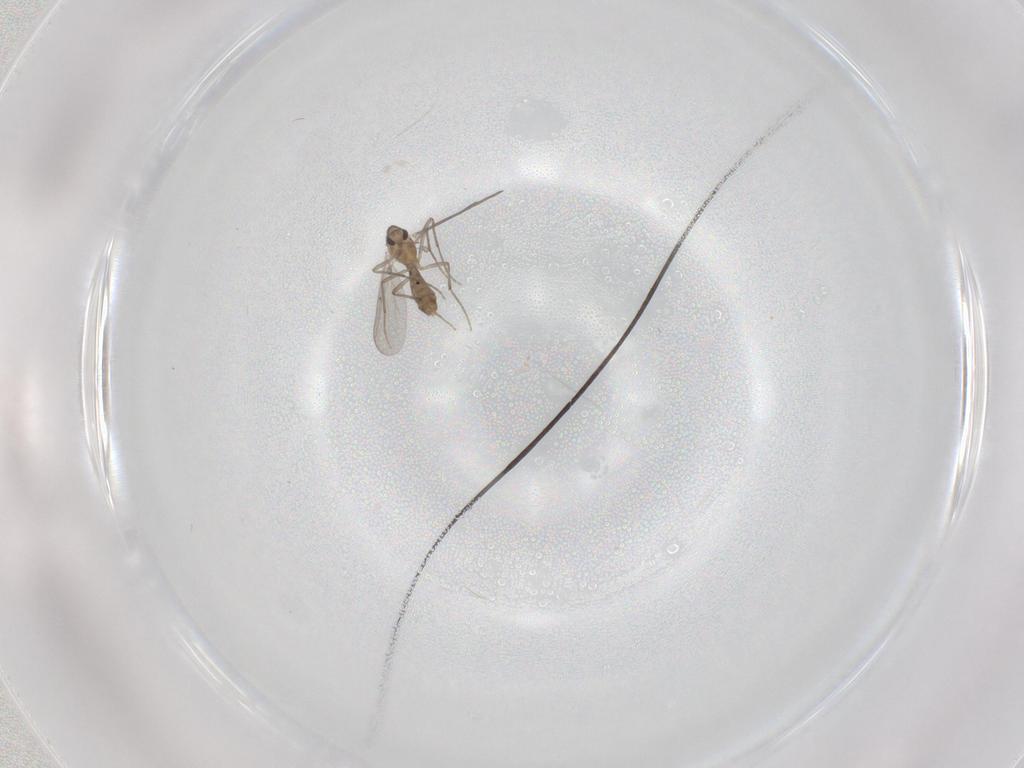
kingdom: Animalia
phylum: Arthropoda
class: Insecta
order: Diptera
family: Chironomidae
